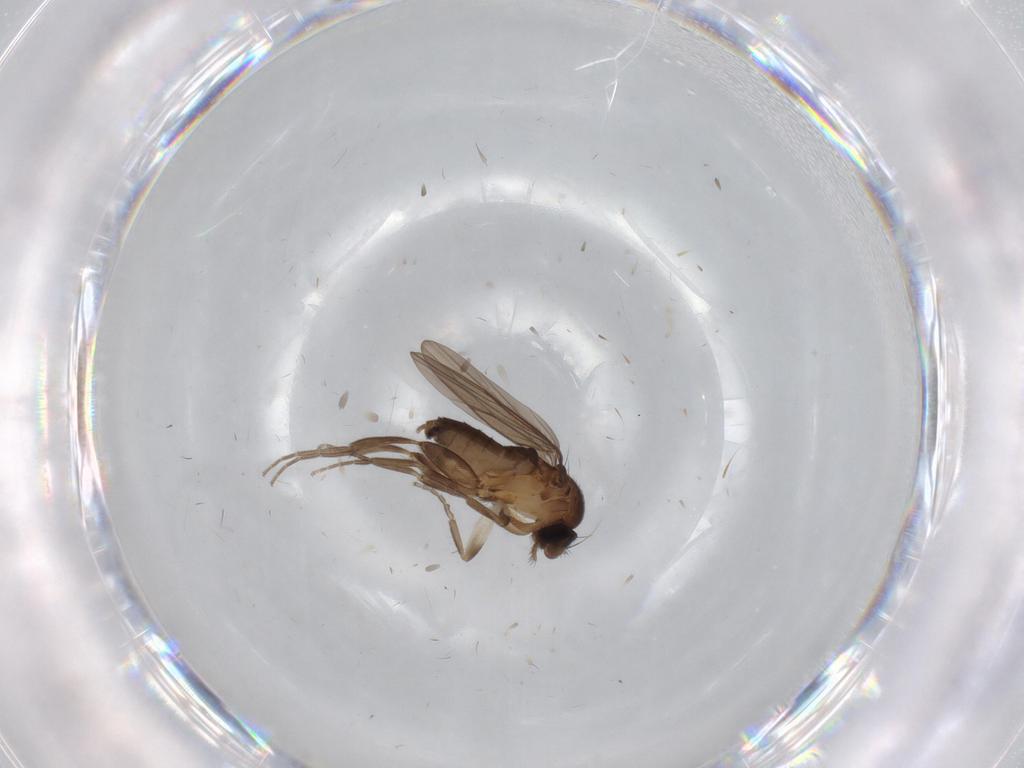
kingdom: Animalia
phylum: Arthropoda
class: Insecta
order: Diptera
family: Cecidomyiidae
